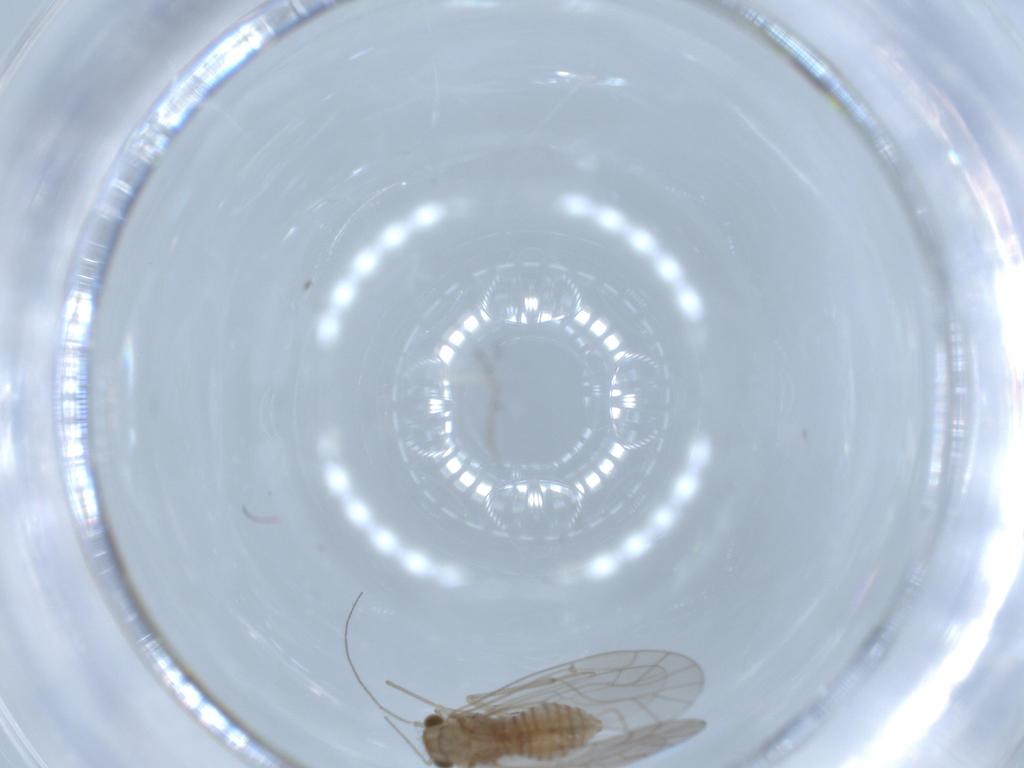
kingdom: Animalia
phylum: Arthropoda
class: Insecta
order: Psocodea
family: Lachesillidae
